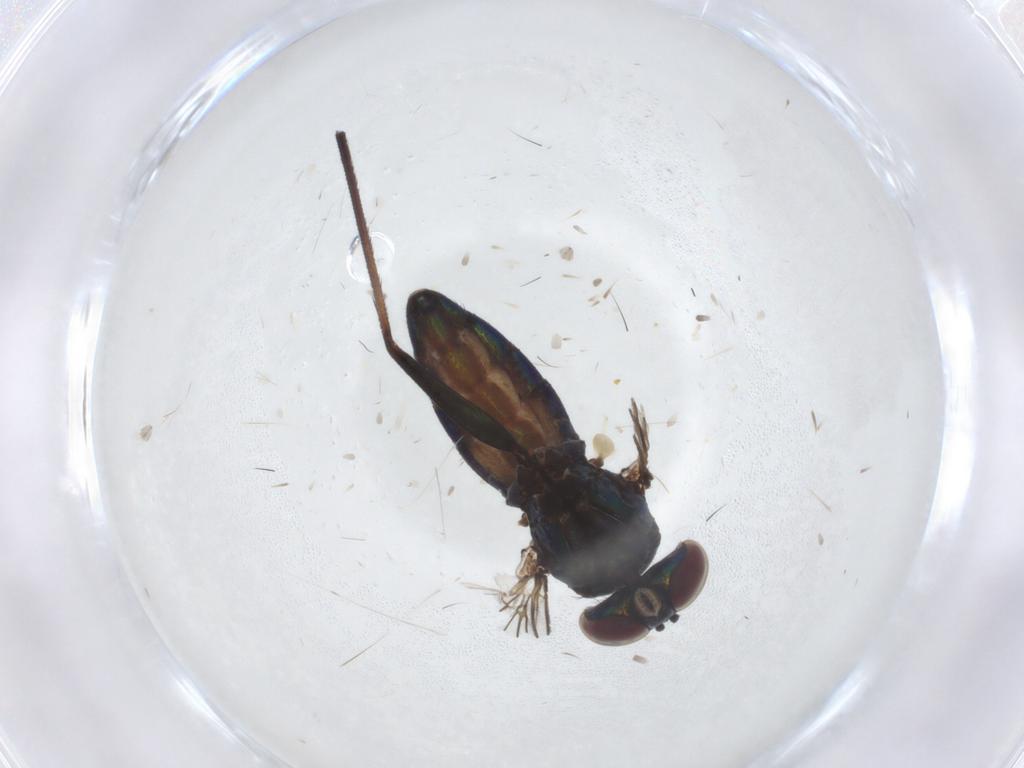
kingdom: Animalia
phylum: Arthropoda
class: Insecta
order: Diptera
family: Dolichopodidae
